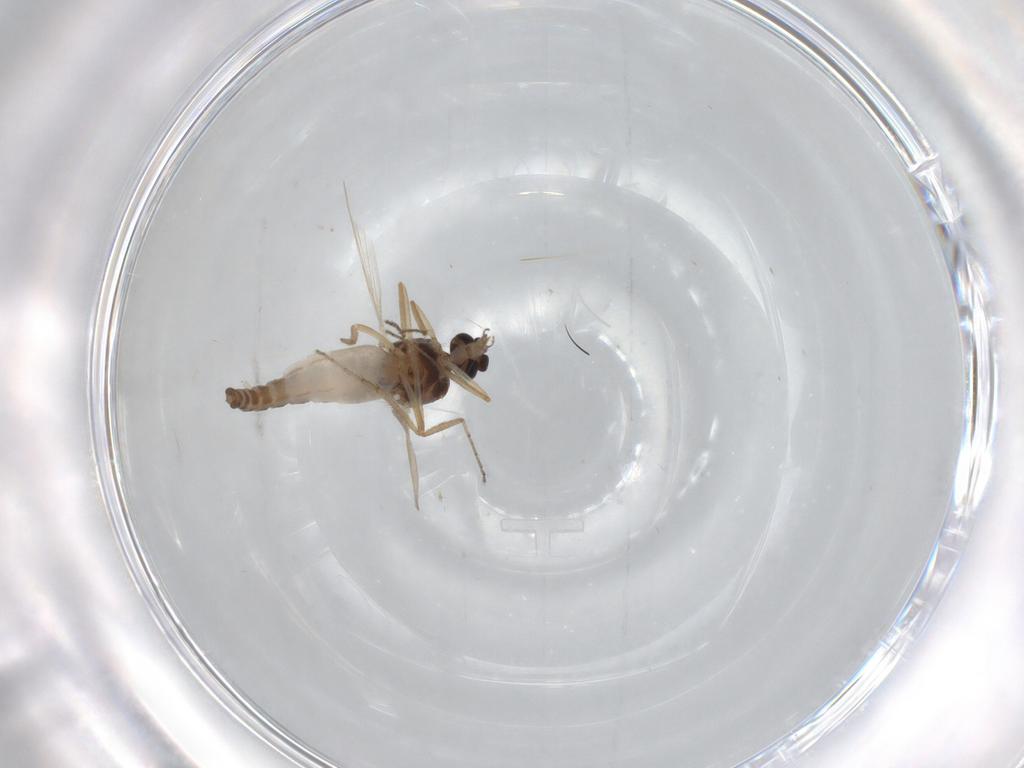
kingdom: Animalia
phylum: Arthropoda
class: Insecta
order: Diptera
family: Ceratopogonidae
